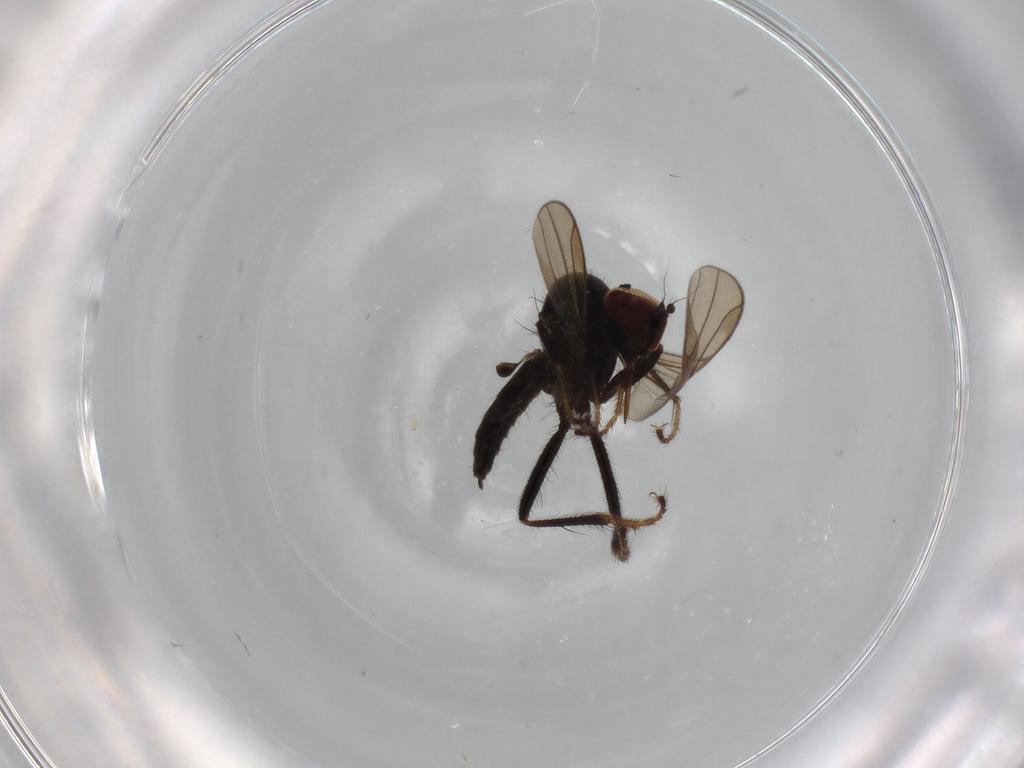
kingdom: Animalia
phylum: Arthropoda
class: Insecta
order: Diptera
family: Hybotidae
